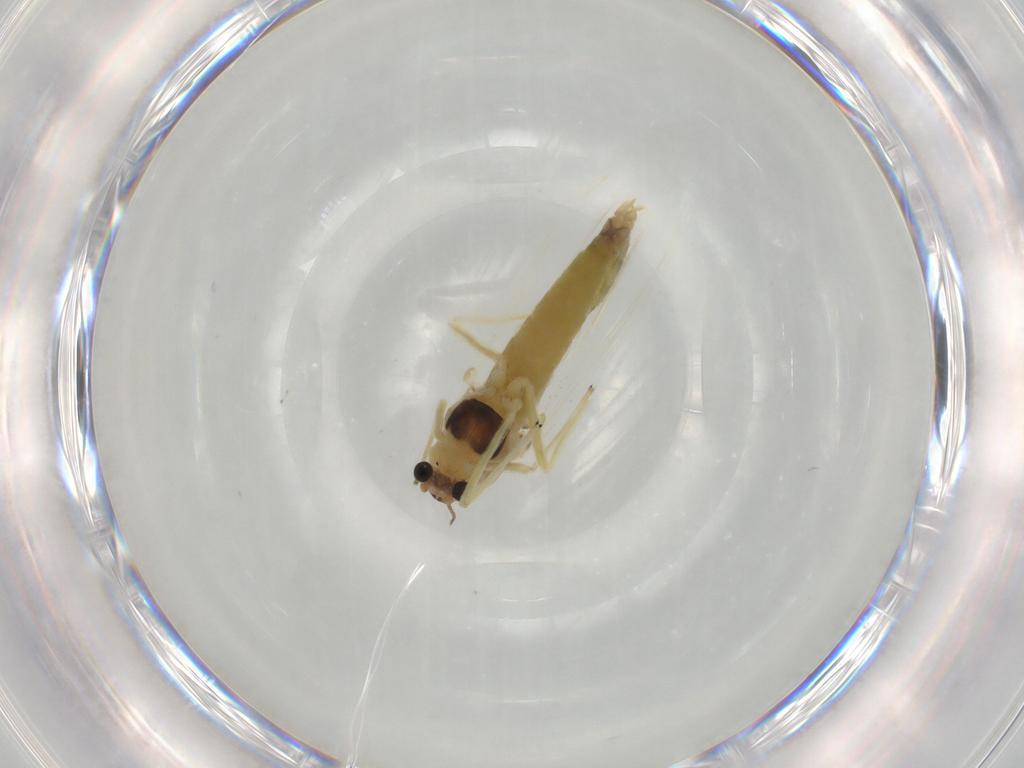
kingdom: Animalia
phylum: Arthropoda
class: Insecta
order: Diptera
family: Chironomidae
